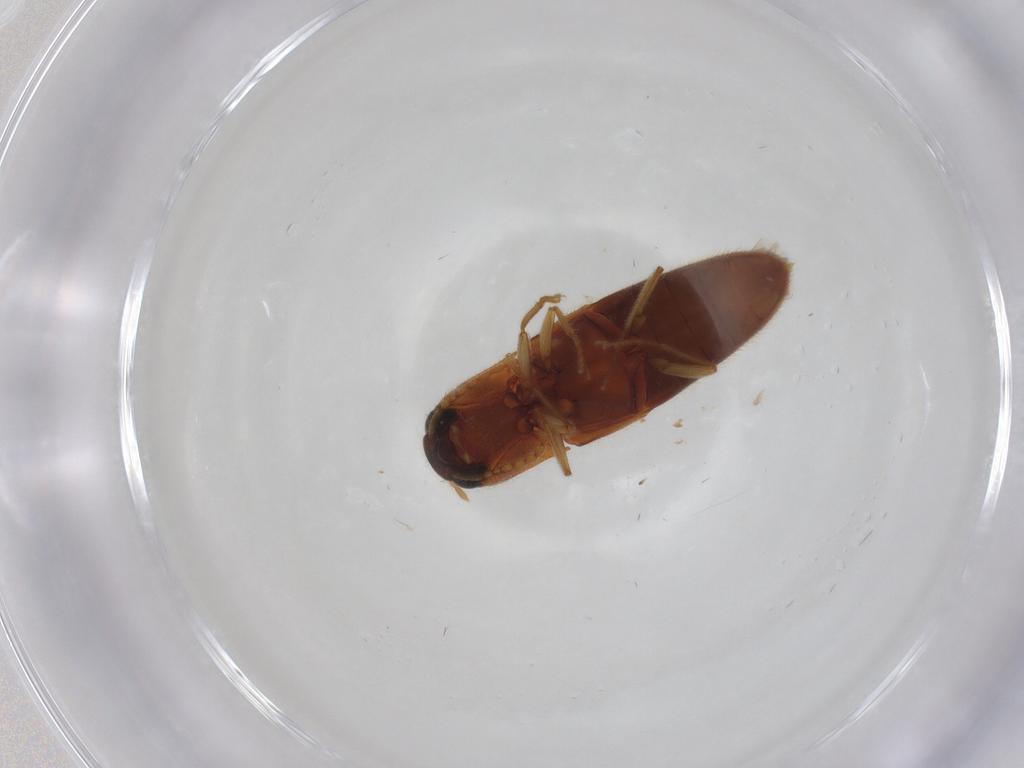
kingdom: Animalia
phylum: Arthropoda
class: Insecta
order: Coleoptera
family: Elateridae
